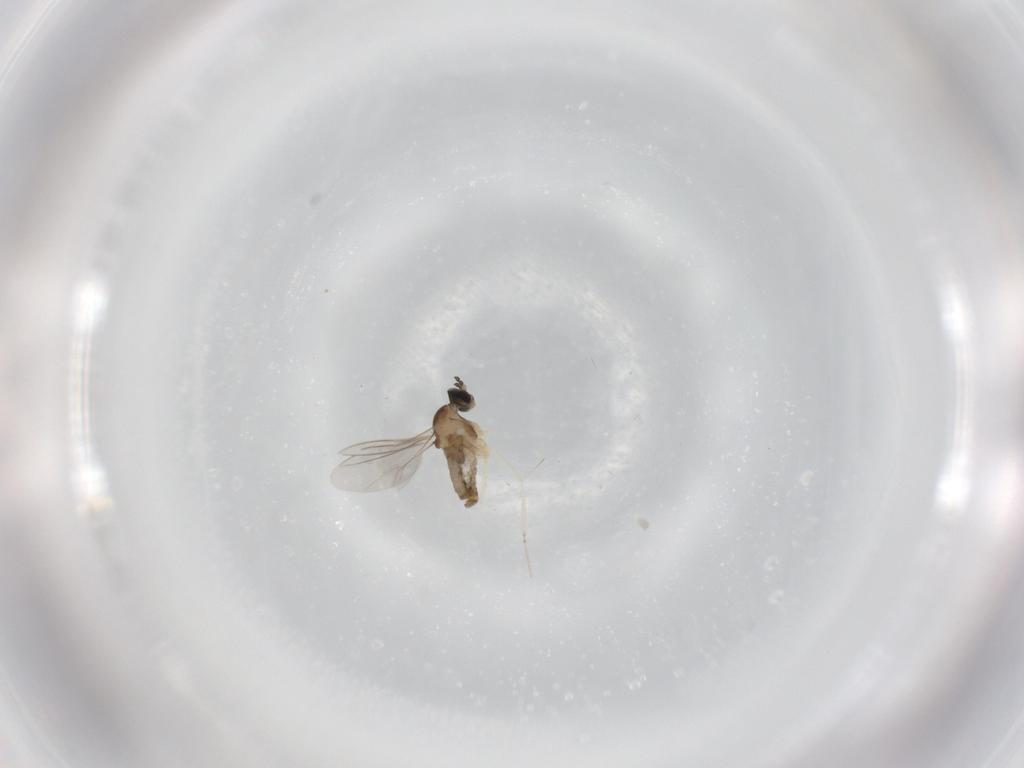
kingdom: Animalia
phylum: Arthropoda
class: Insecta
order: Diptera
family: Cecidomyiidae
